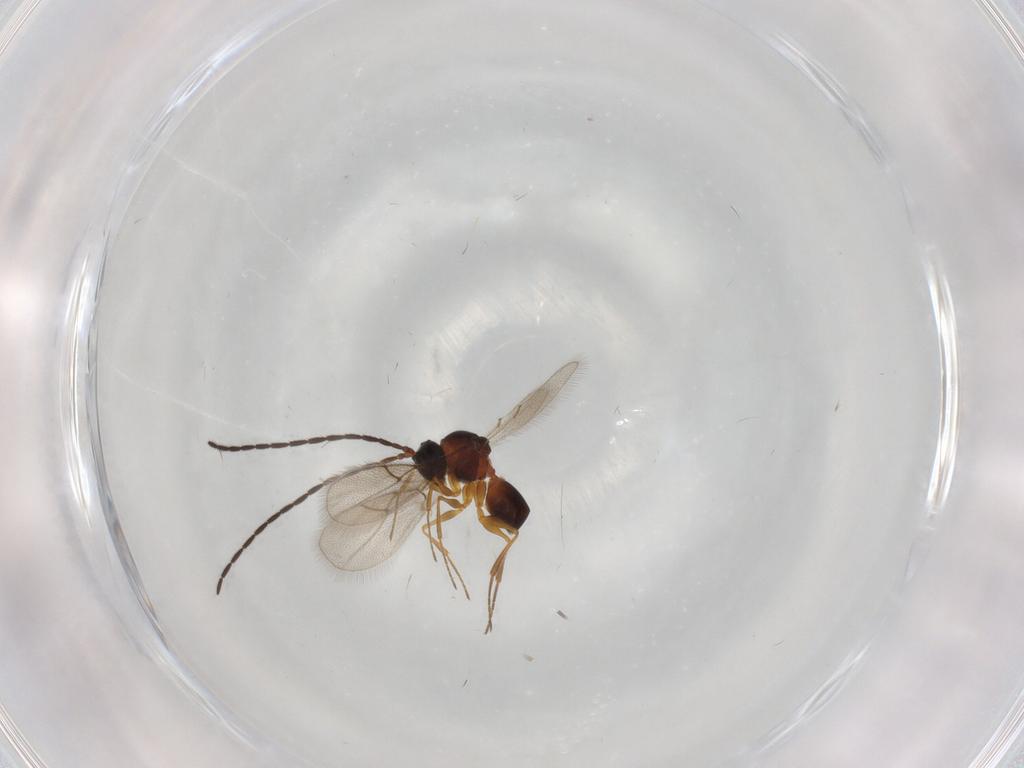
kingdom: Animalia
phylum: Arthropoda
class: Insecta
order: Hymenoptera
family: Figitidae
